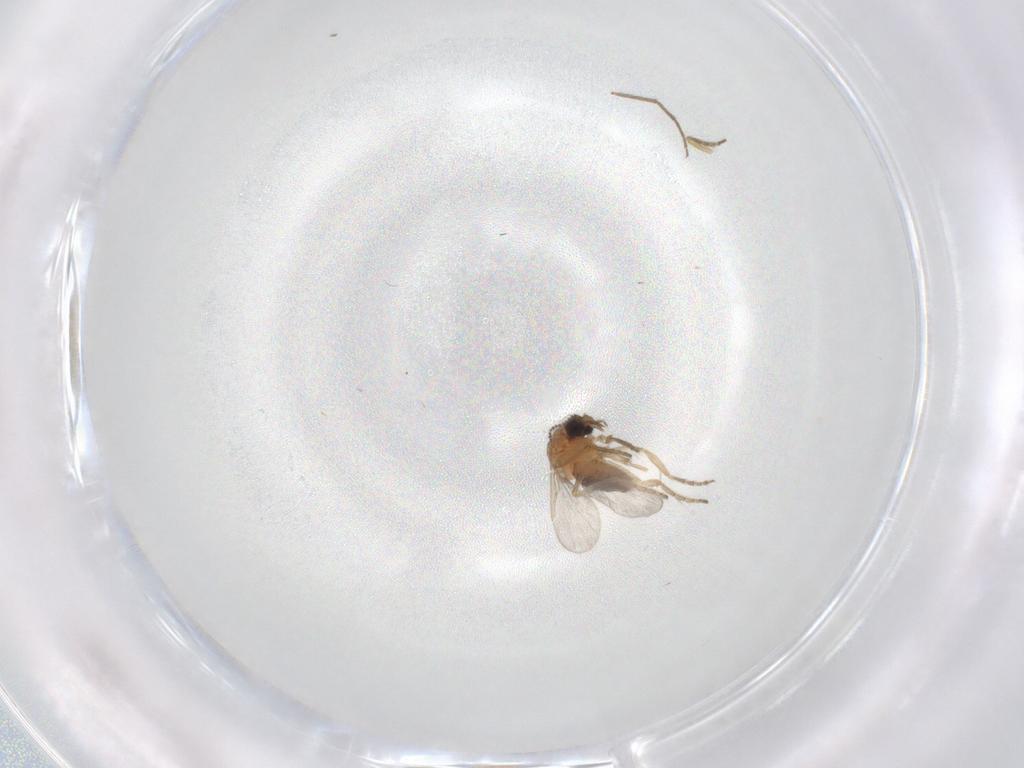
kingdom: Animalia
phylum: Arthropoda
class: Insecta
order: Diptera
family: Ceratopogonidae
